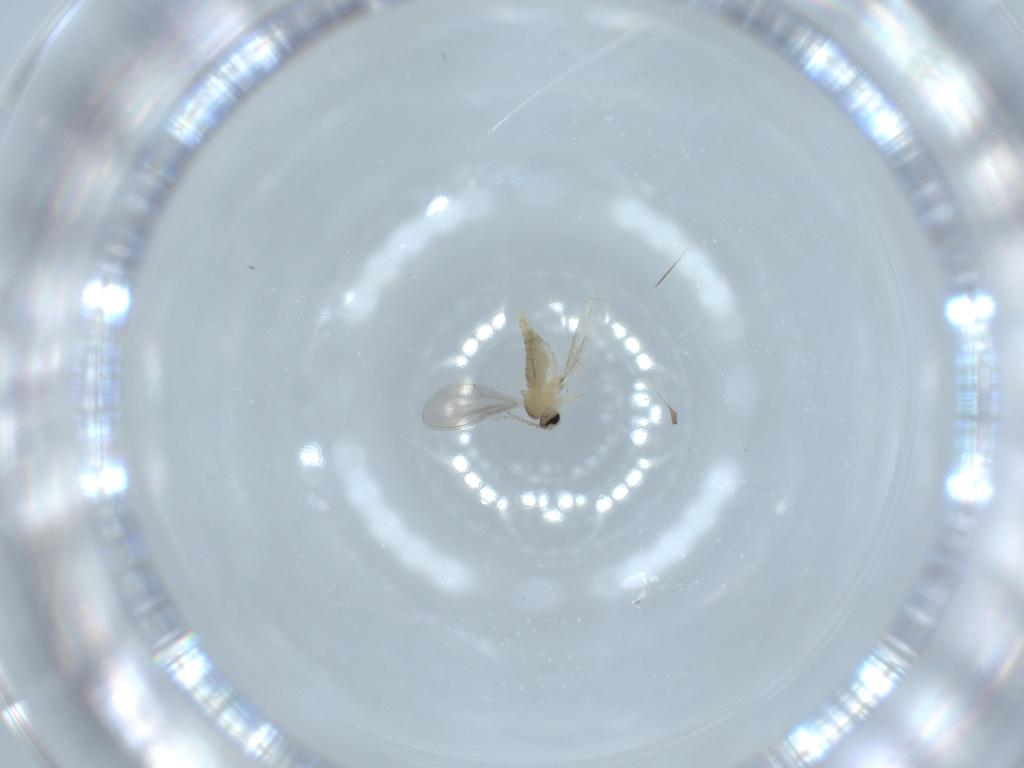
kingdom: Animalia
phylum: Arthropoda
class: Insecta
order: Diptera
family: Cecidomyiidae
